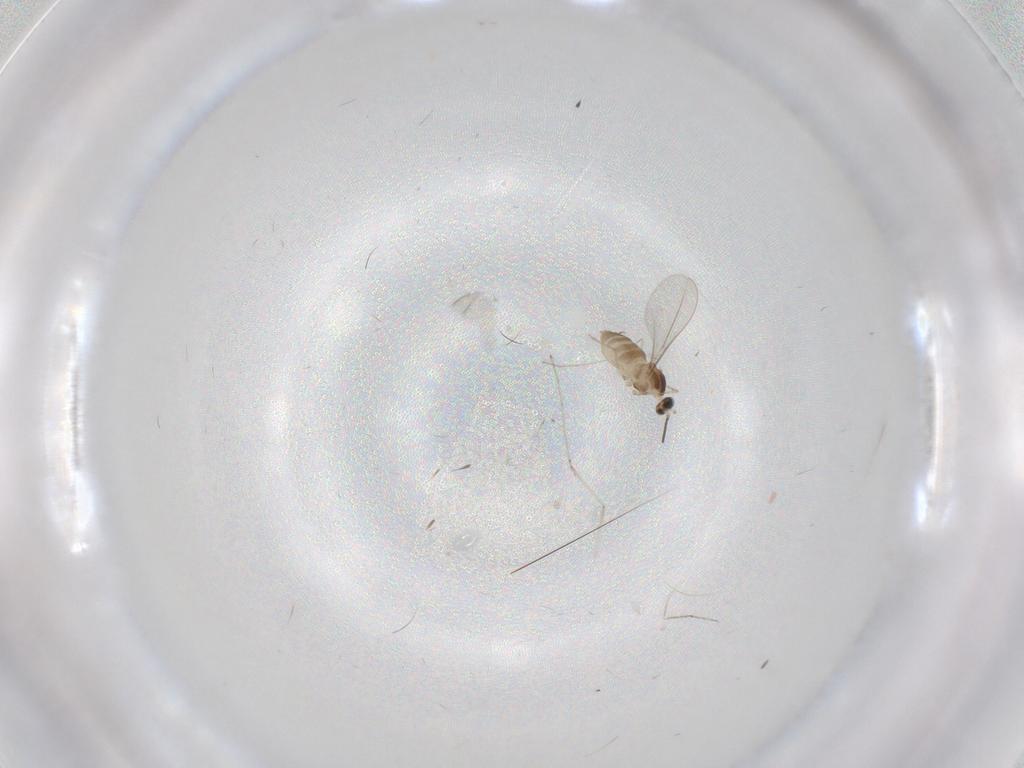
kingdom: Animalia
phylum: Arthropoda
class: Insecta
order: Diptera
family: Cecidomyiidae
